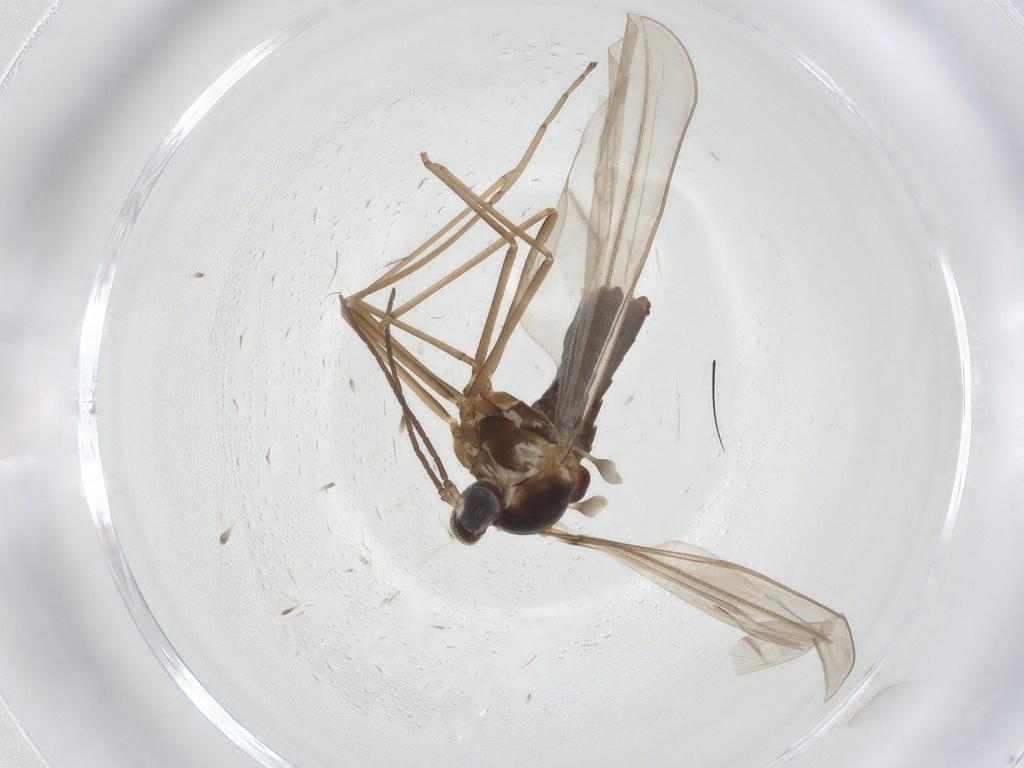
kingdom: Animalia
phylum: Arthropoda
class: Insecta
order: Diptera
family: Cecidomyiidae
